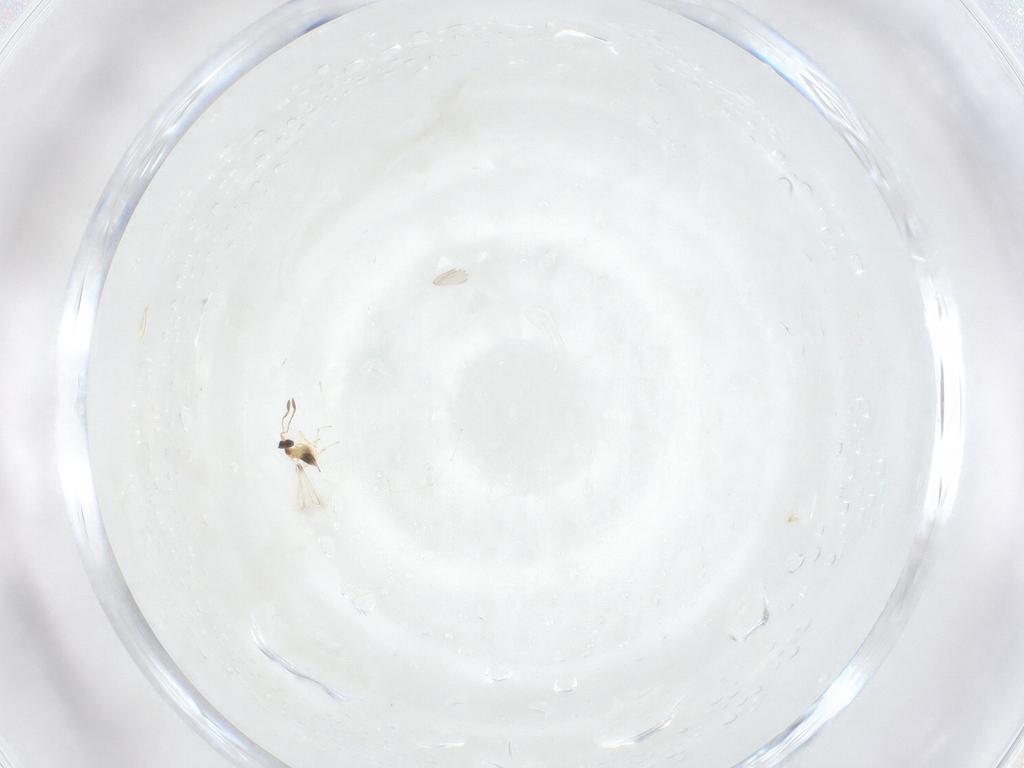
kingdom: Animalia
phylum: Arthropoda
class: Insecta
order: Hymenoptera
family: Mymaridae
